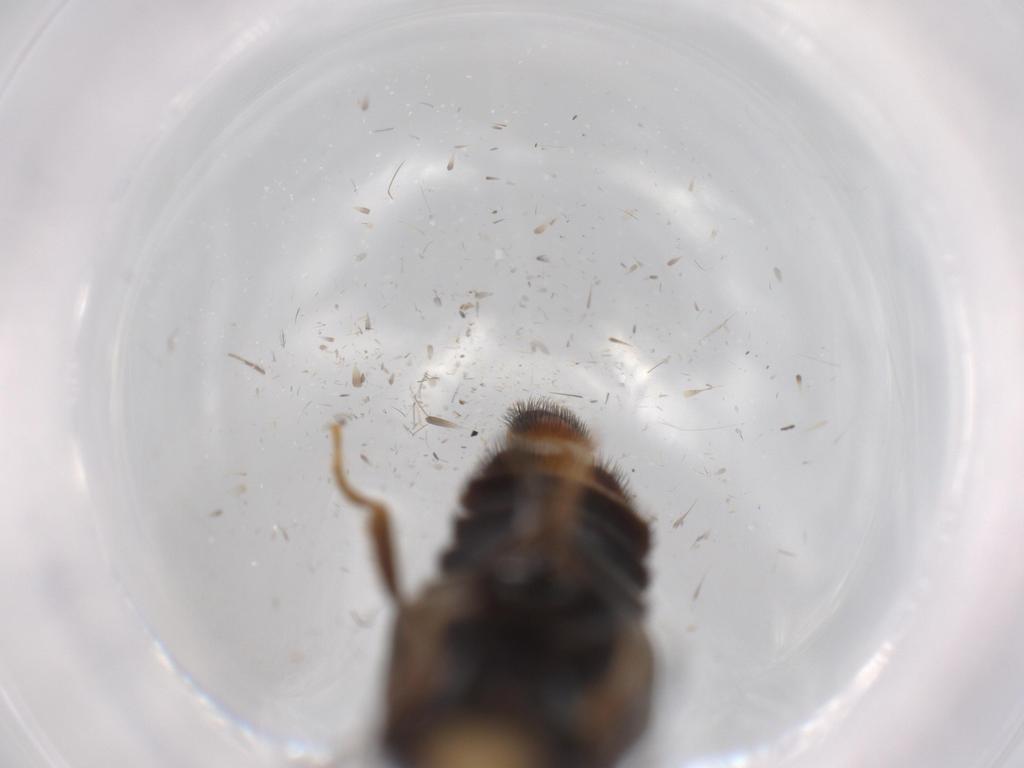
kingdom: Animalia
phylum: Arthropoda
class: Insecta
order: Coleoptera
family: Phengodidae
